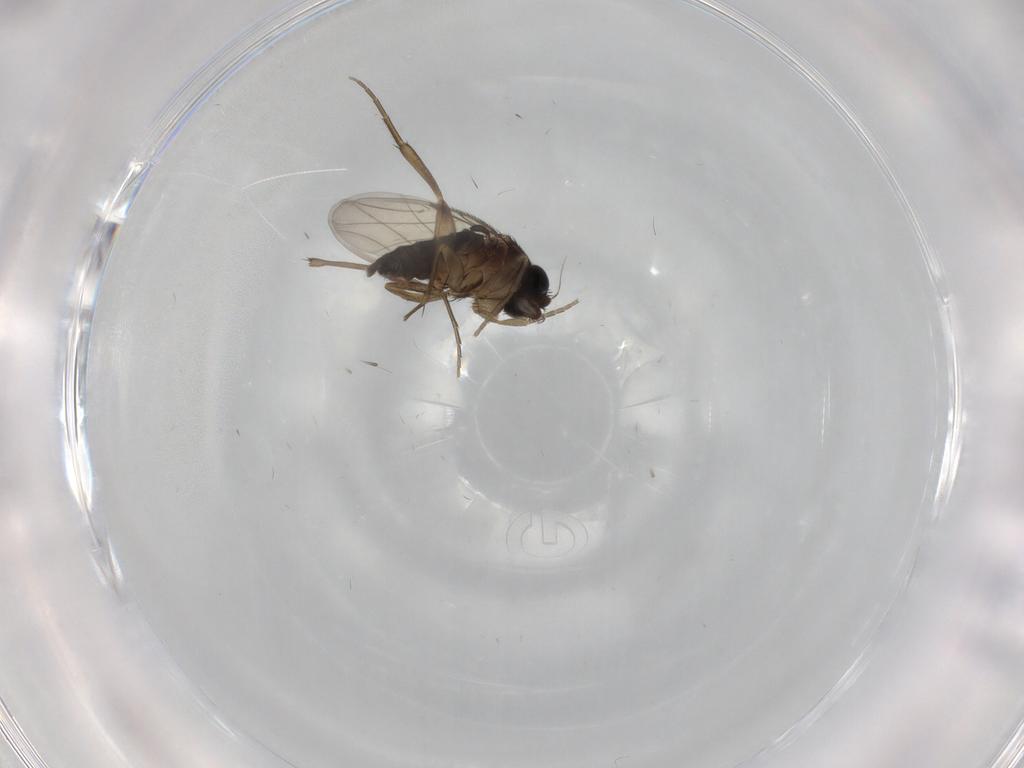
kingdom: Animalia
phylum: Arthropoda
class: Insecta
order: Diptera
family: Phoridae
